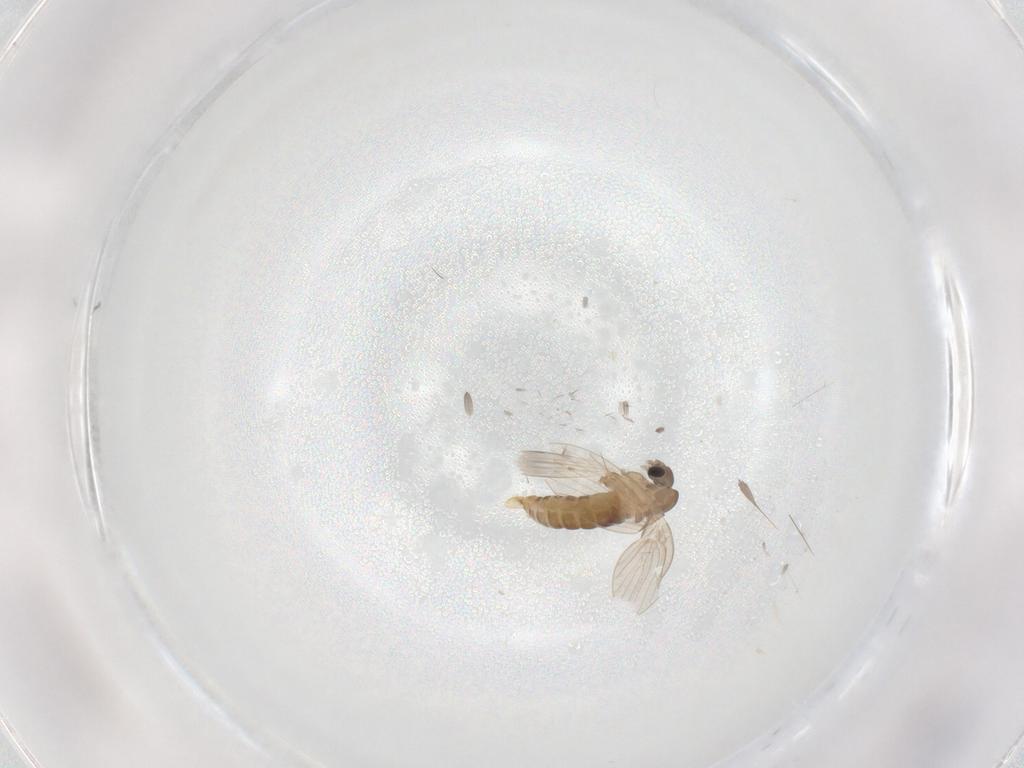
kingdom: Animalia
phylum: Arthropoda
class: Insecta
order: Diptera
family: Psychodidae
